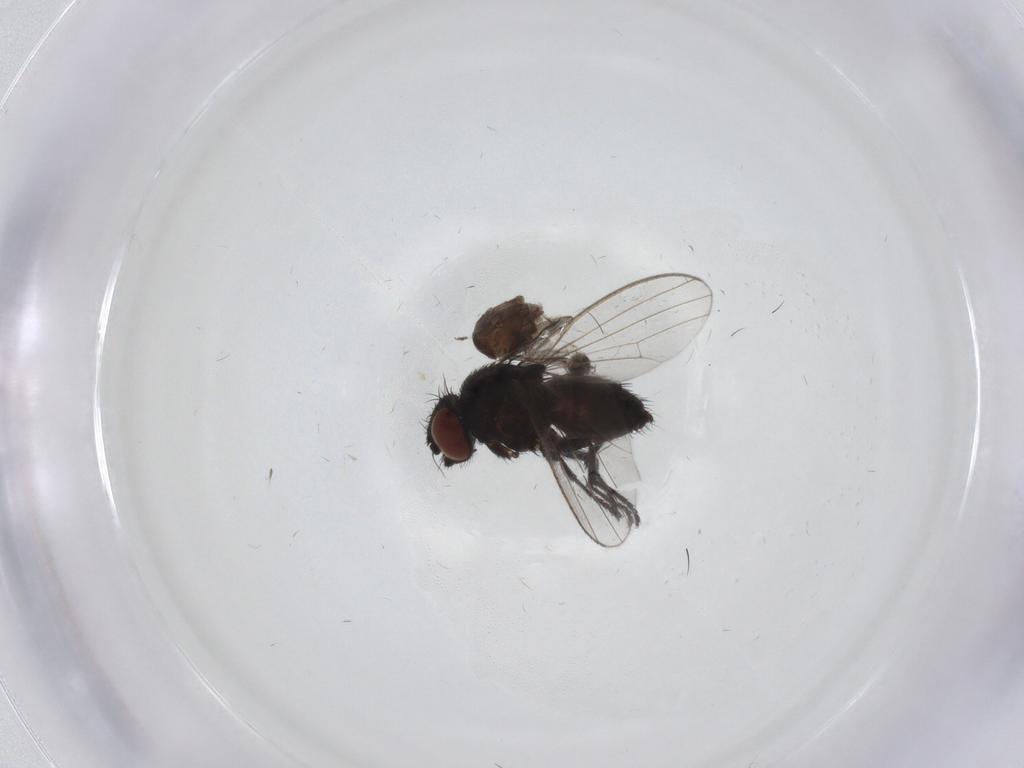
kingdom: Animalia
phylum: Arthropoda
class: Insecta
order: Diptera
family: Sciaridae
